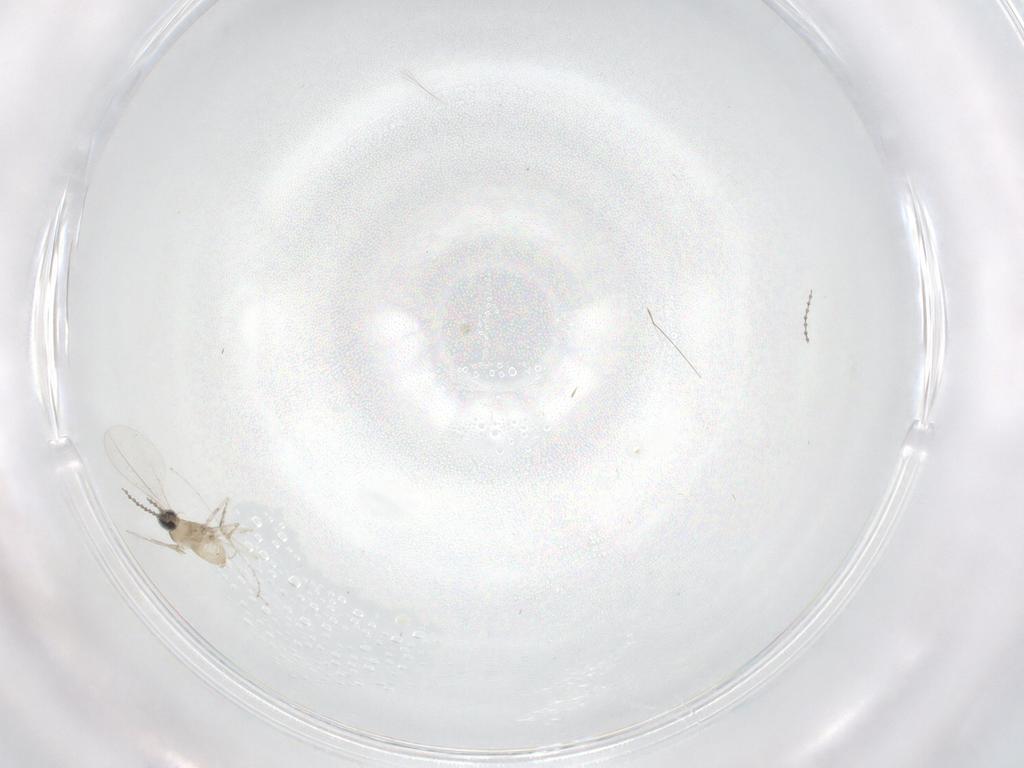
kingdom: Animalia
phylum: Arthropoda
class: Insecta
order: Diptera
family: Cecidomyiidae
